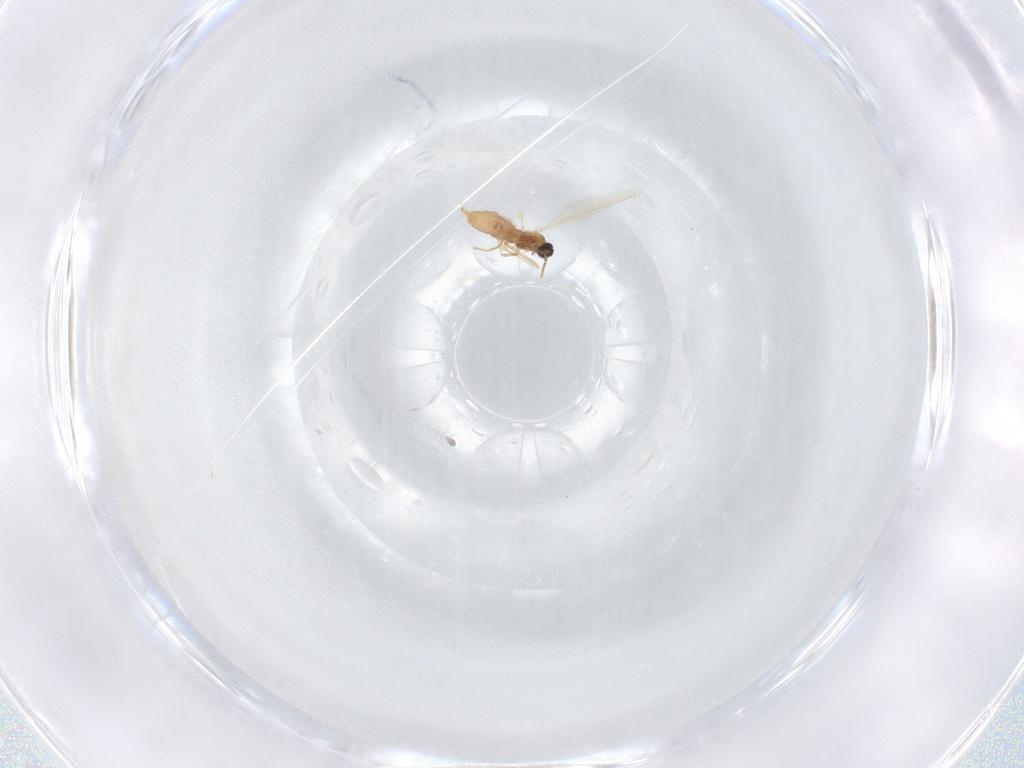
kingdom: Animalia
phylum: Arthropoda
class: Insecta
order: Diptera
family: Cecidomyiidae
